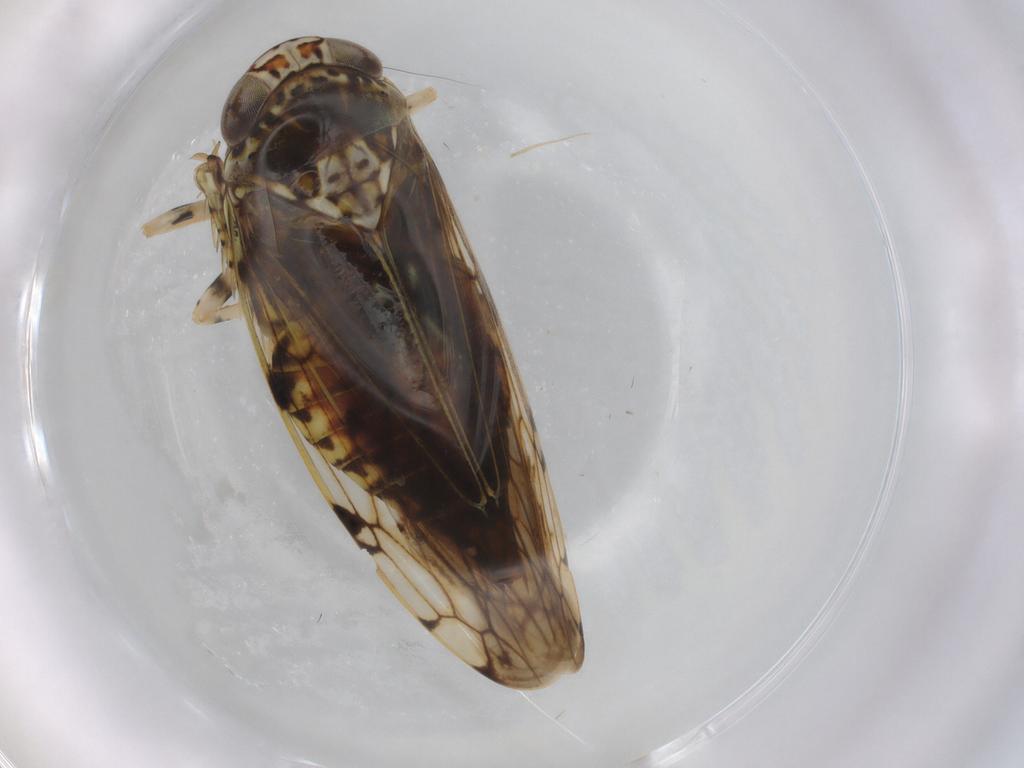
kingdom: Animalia
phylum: Arthropoda
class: Insecta
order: Hemiptera
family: Cicadellidae
